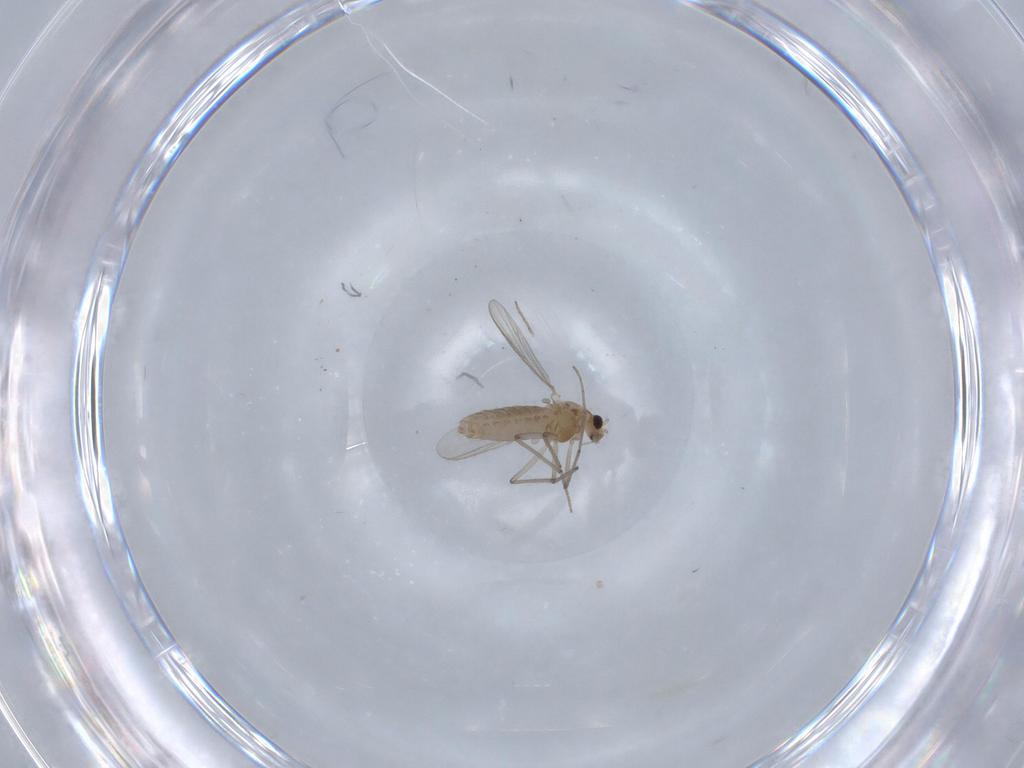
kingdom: Animalia
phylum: Arthropoda
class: Insecta
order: Diptera
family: Chironomidae
